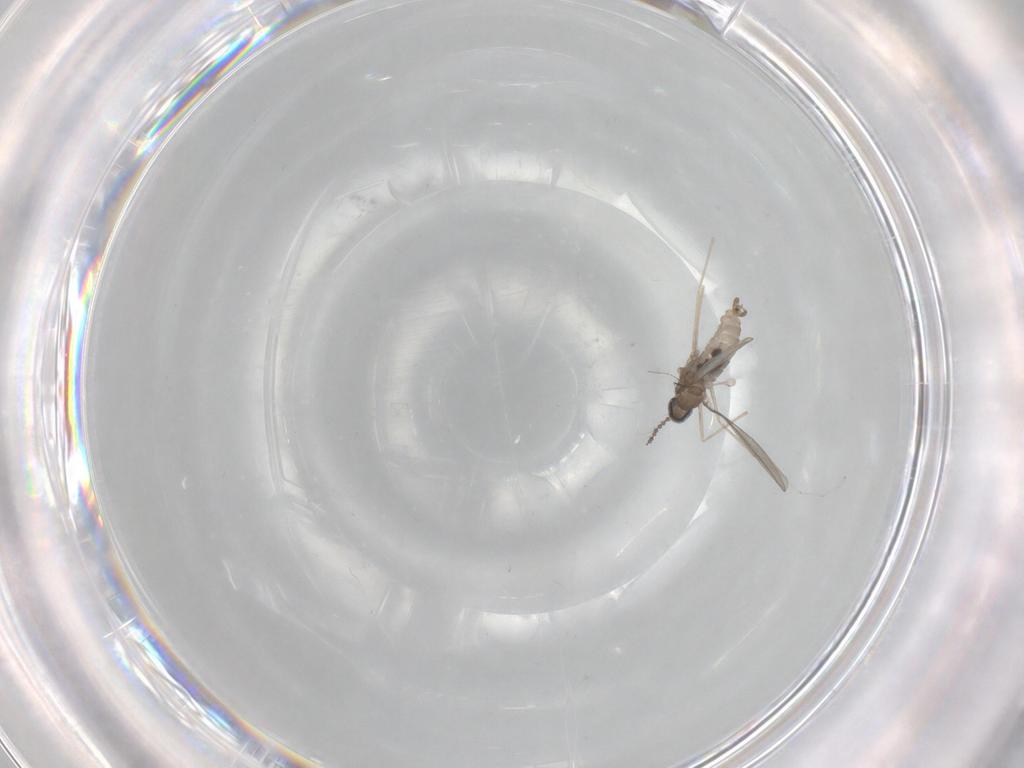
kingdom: Animalia
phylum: Arthropoda
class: Insecta
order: Diptera
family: Cecidomyiidae
